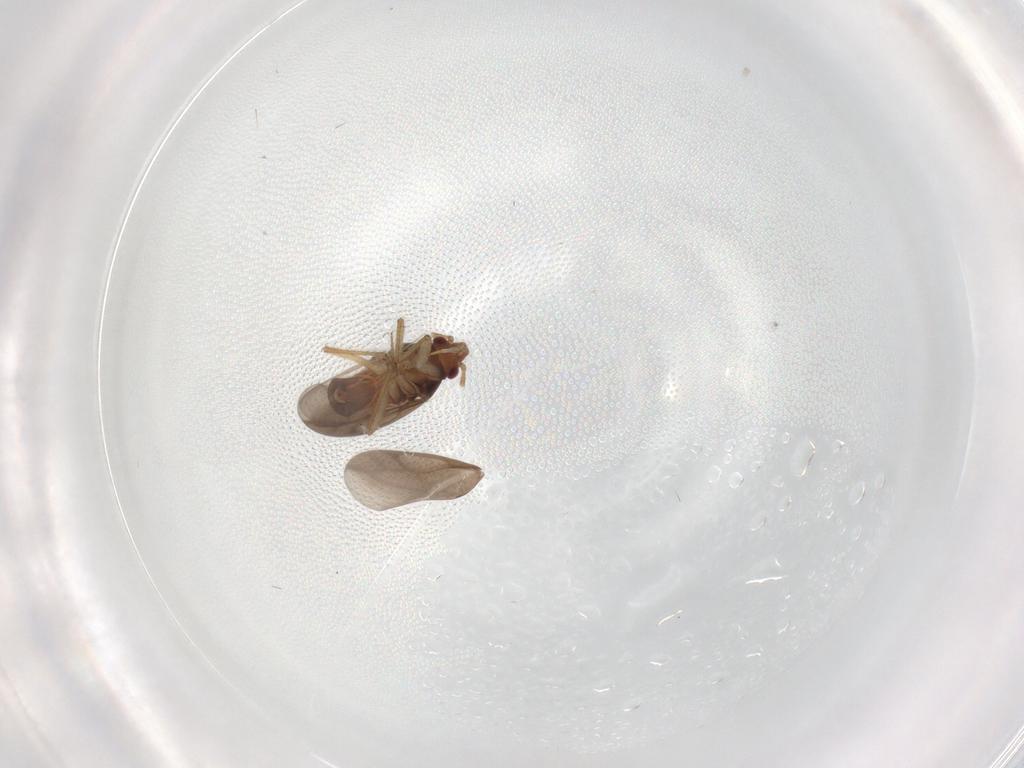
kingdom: Animalia
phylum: Arthropoda
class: Insecta
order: Hemiptera
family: Ceratocombidae
